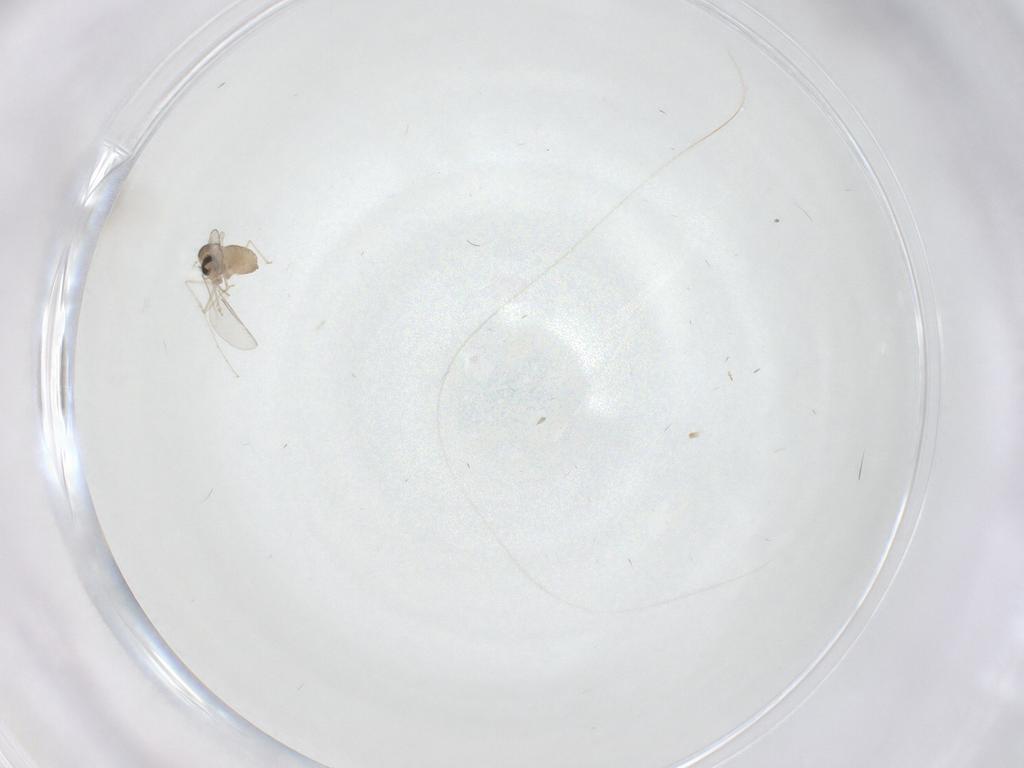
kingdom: Animalia
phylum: Arthropoda
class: Insecta
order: Diptera
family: Cecidomyiidae
